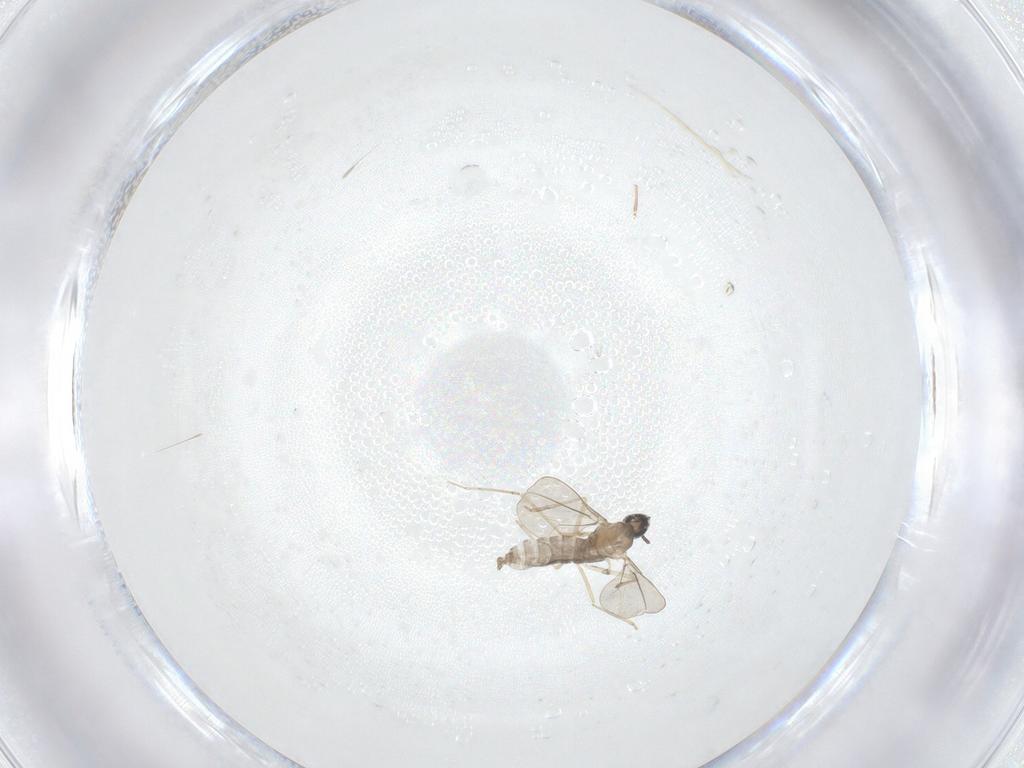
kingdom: Animalia
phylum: Arthropoda
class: Insecta
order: Diptera
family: Cecidomyiidae
